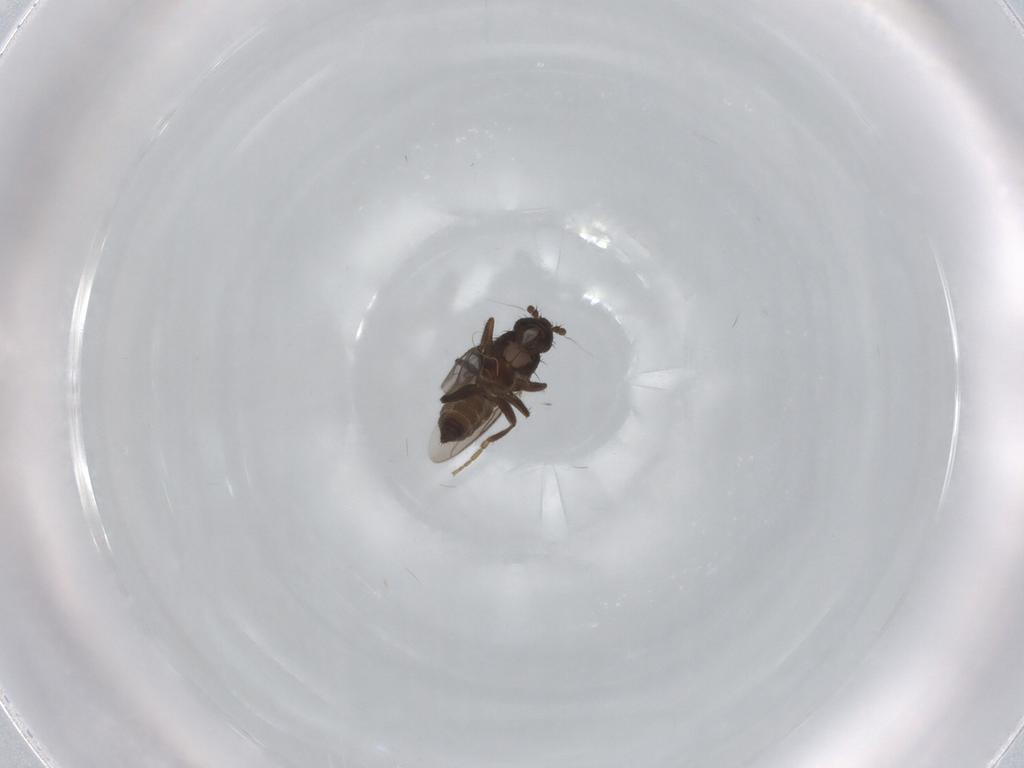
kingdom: Animalia
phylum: Arthropoda
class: Insecta
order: Diptera
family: Sphaeroceridae
